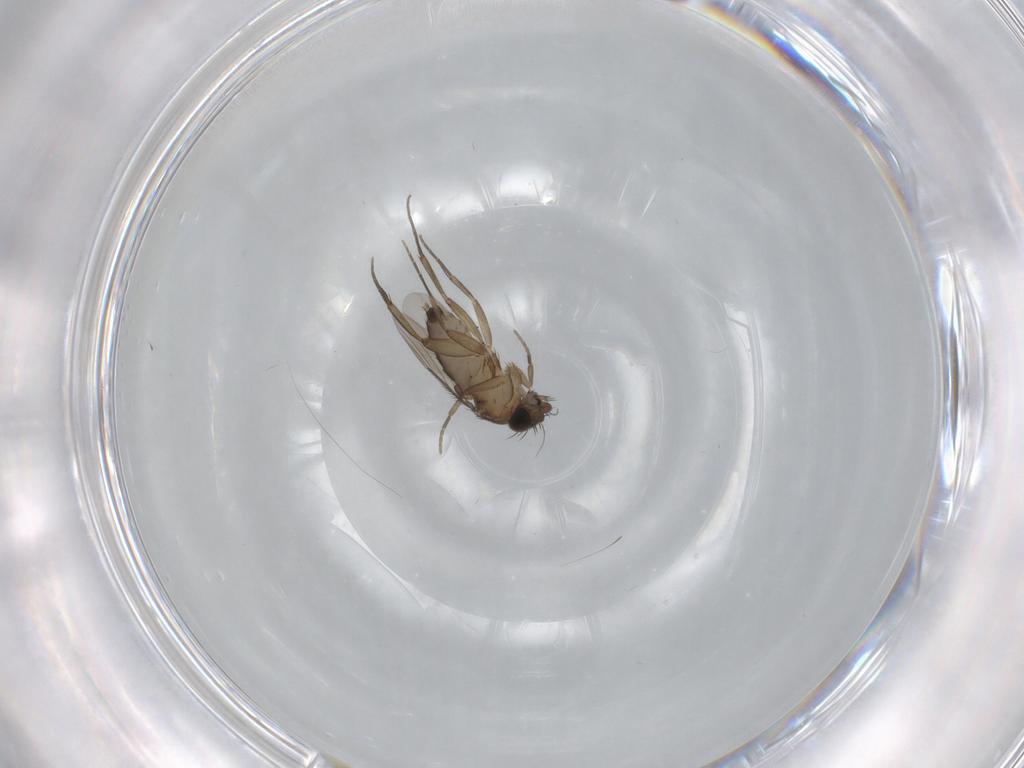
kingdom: Animalia
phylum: Arthropoda
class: Insecta
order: Diptera
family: Phoridae
